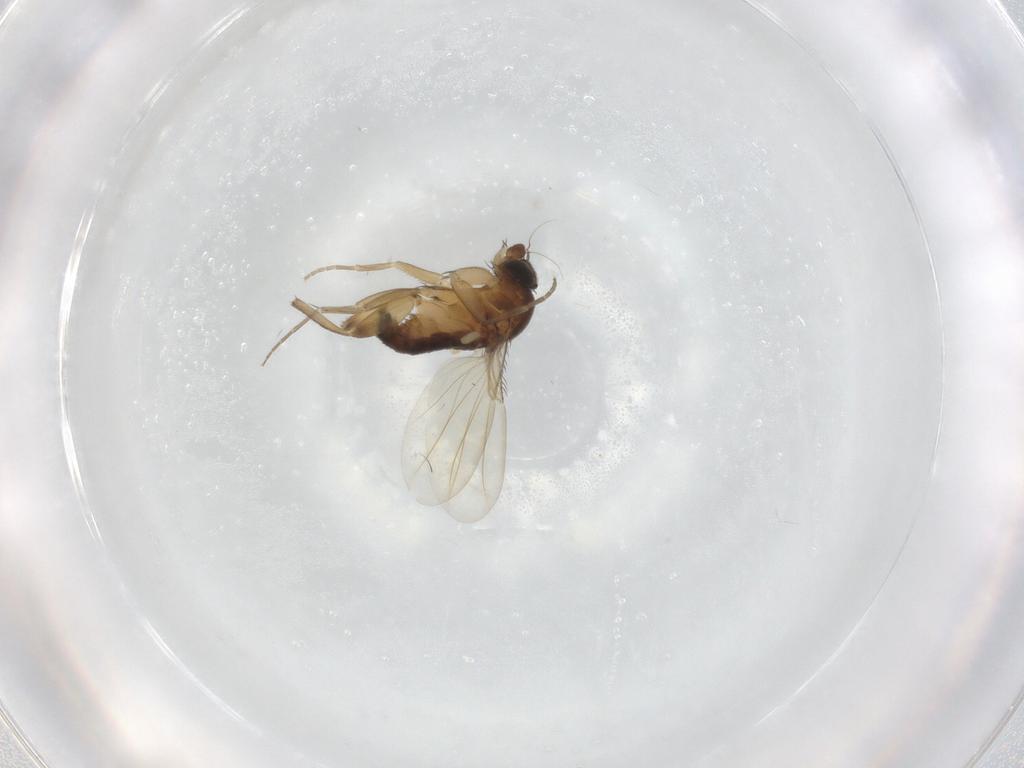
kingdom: Animalia
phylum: Arthropoda
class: Insecta
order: Diptera
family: Phoridae
